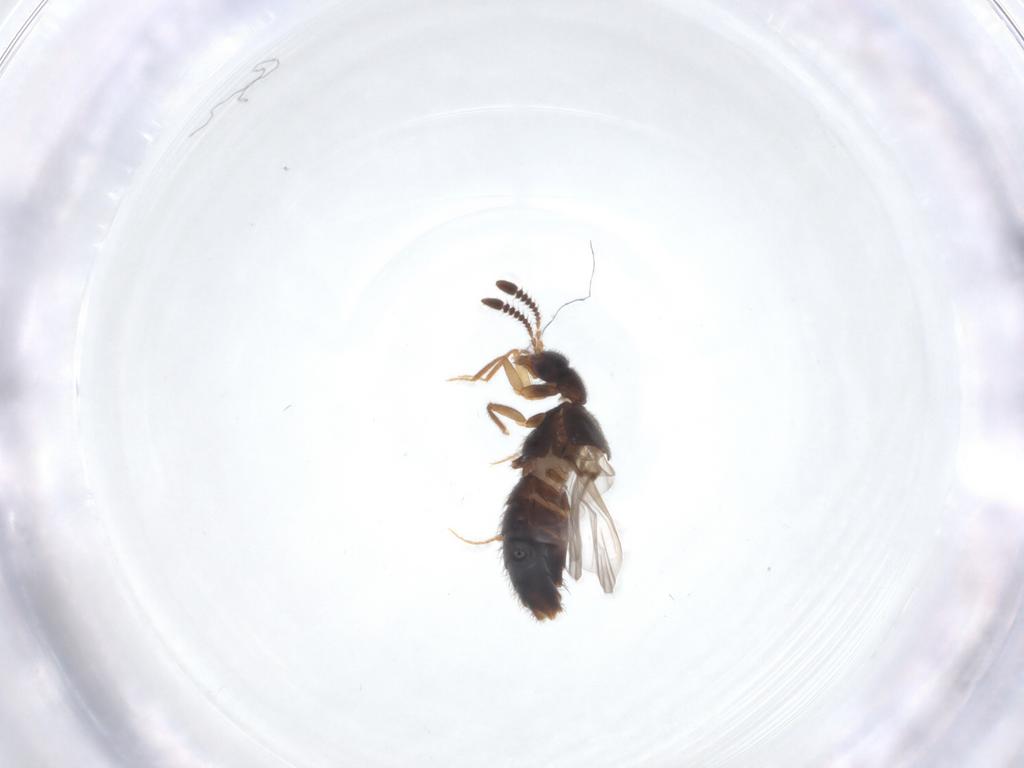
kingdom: Animalia
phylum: Arthropoda
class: Insecta
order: Coleoptera
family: Staphylinidae
